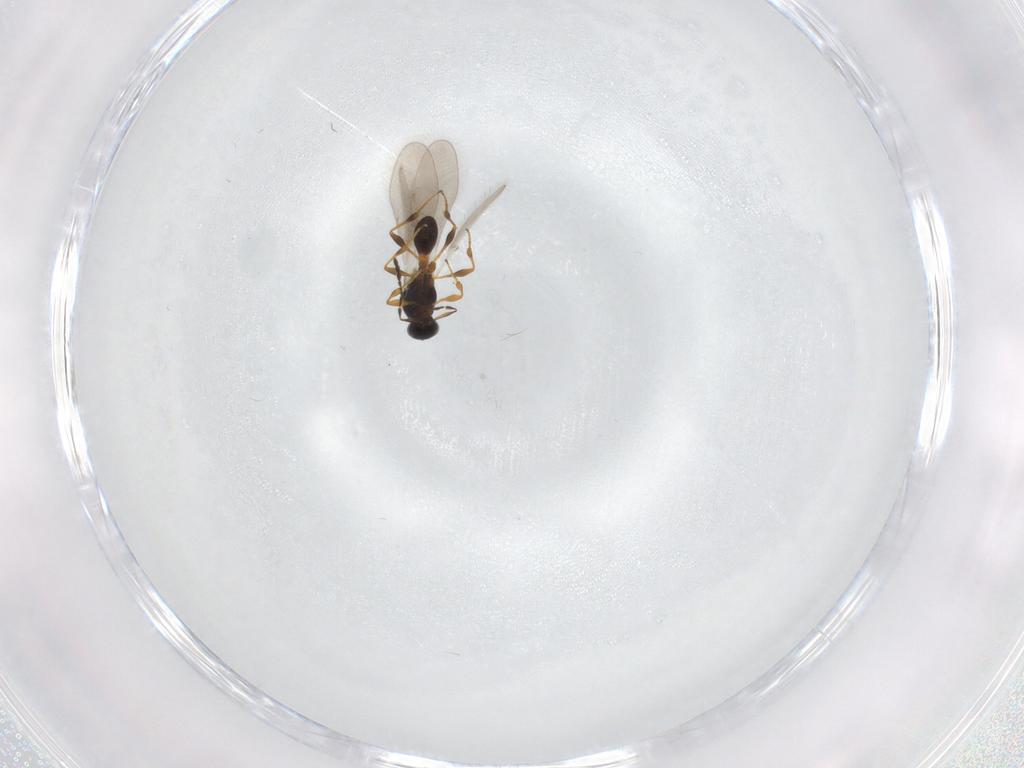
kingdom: Animalia
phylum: Arthropoda
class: Insecta
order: Hymenoptera
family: Platygastridae
